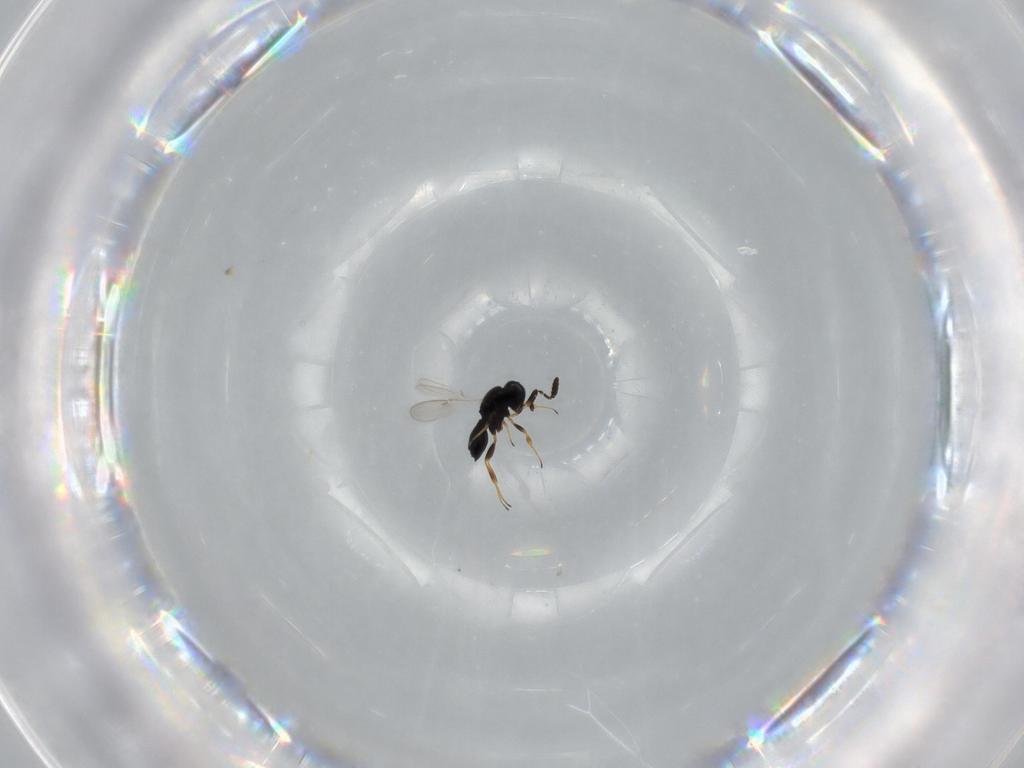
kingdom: Animalia
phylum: Arthropoda
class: Insecta
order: Hymenoptera
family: Scelionidae
